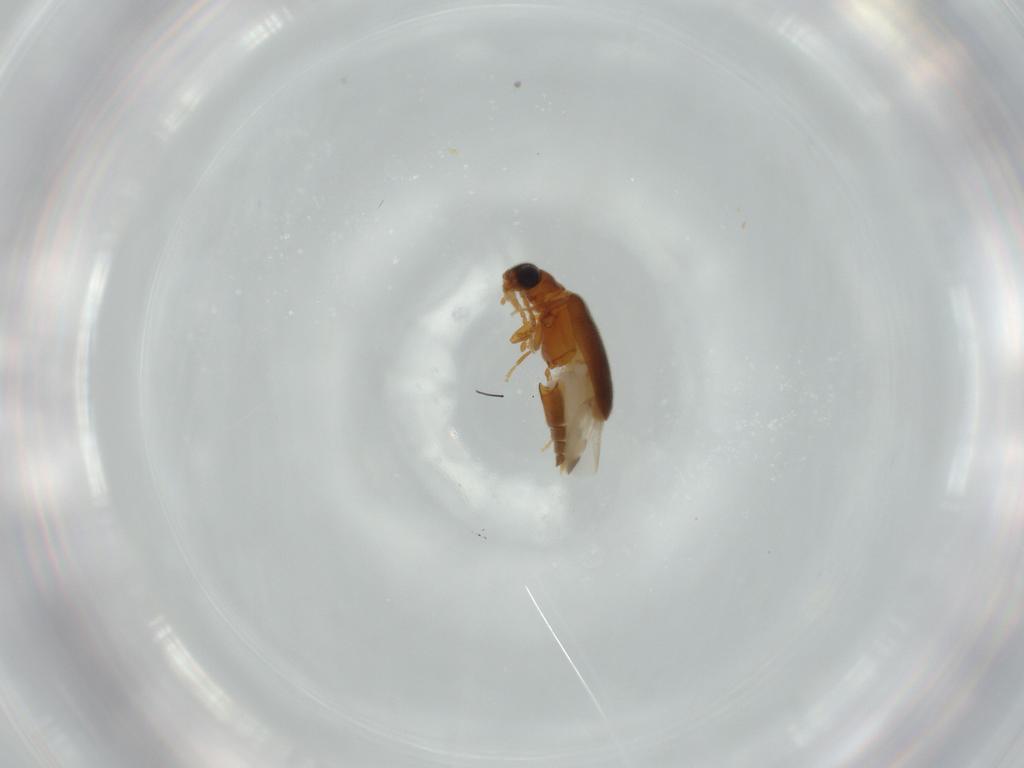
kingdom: Animalia
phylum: Arthropoda
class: Insecta
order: Coleoptera
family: Aderidae
